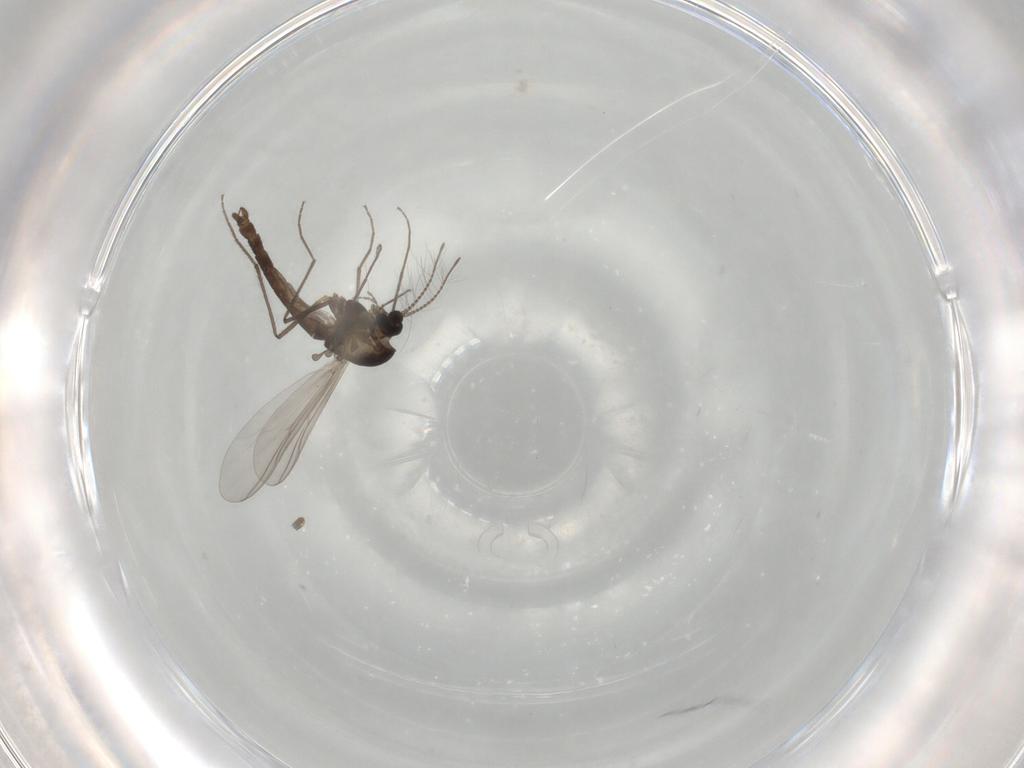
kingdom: Animalia
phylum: Arthropoda
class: Insecta
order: Diptera
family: Chironomidae
